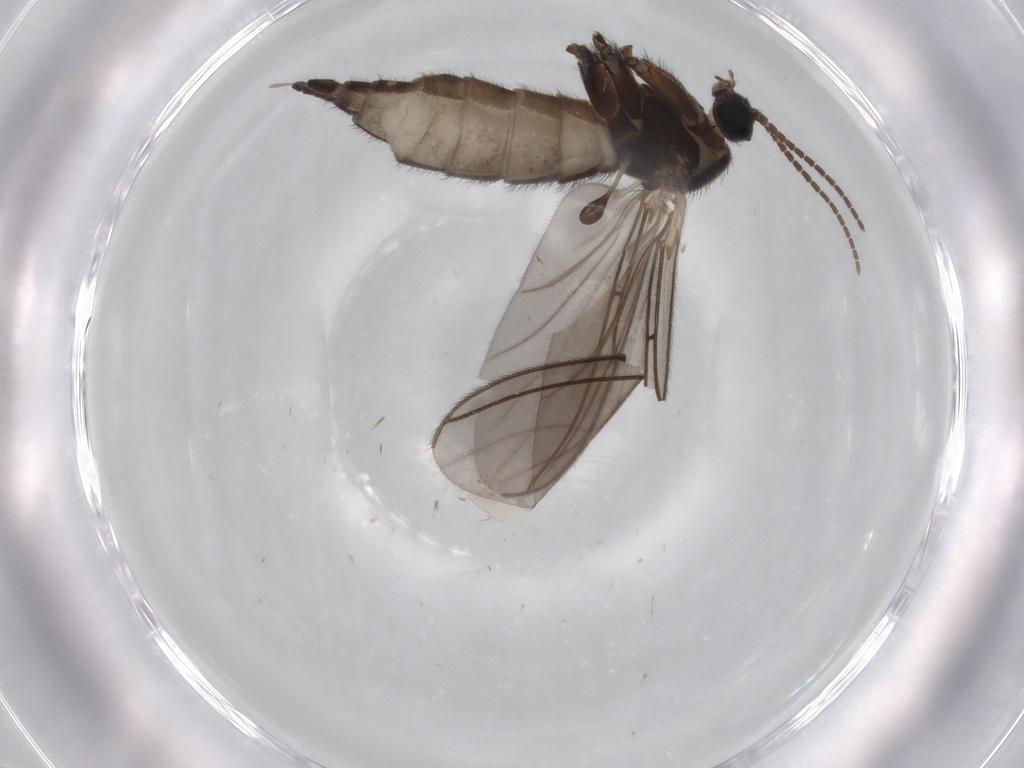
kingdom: Animalia
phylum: Arthropoda
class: Insecta
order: Diptera
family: Sciaridae
